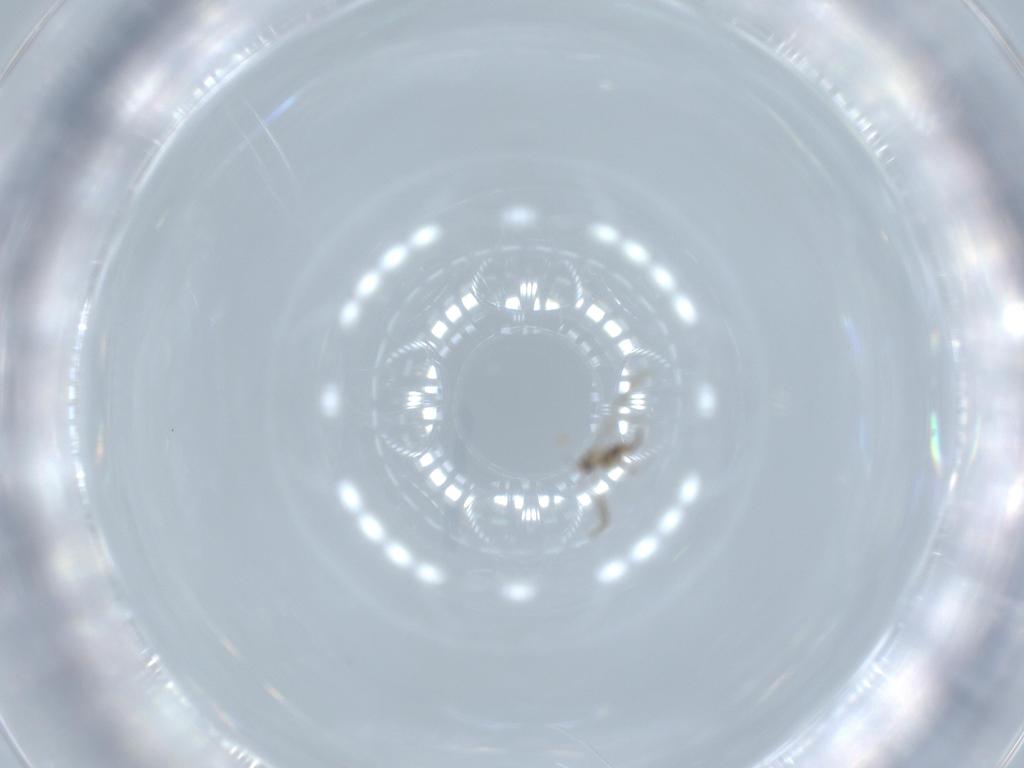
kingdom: Animalia
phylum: Arthropoda
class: Insecta
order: Diptera
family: Cecidomyiidae
